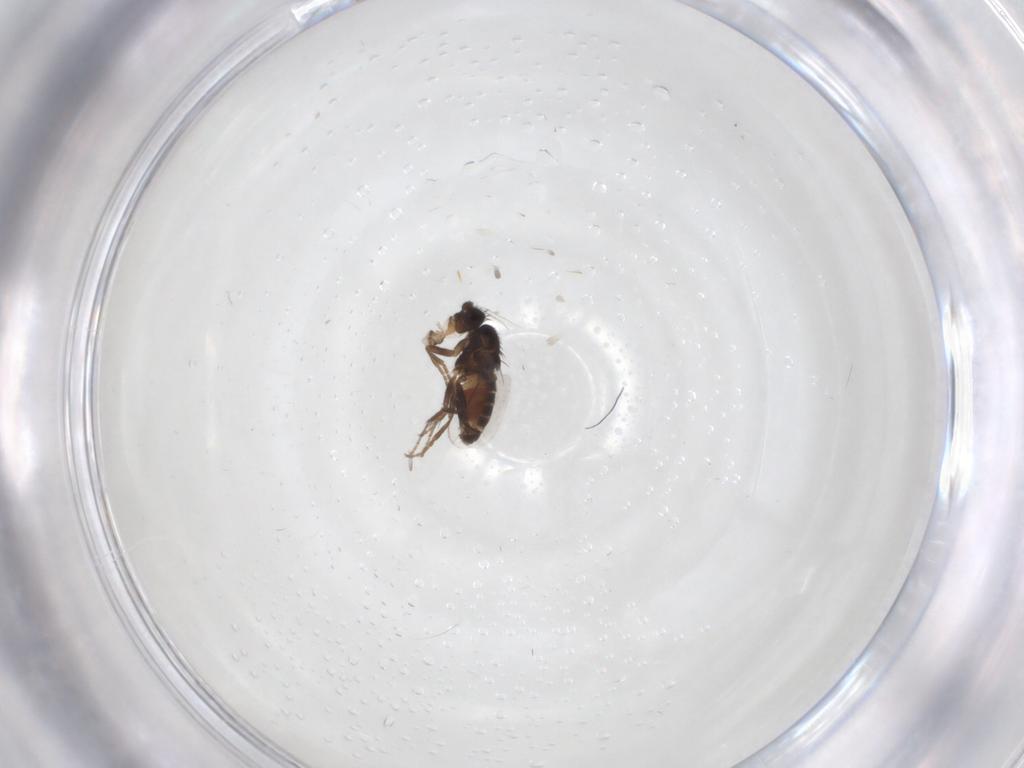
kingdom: Animalia
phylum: Arthropoda
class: Insecta
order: Diptera
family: Sphaeroceridae
